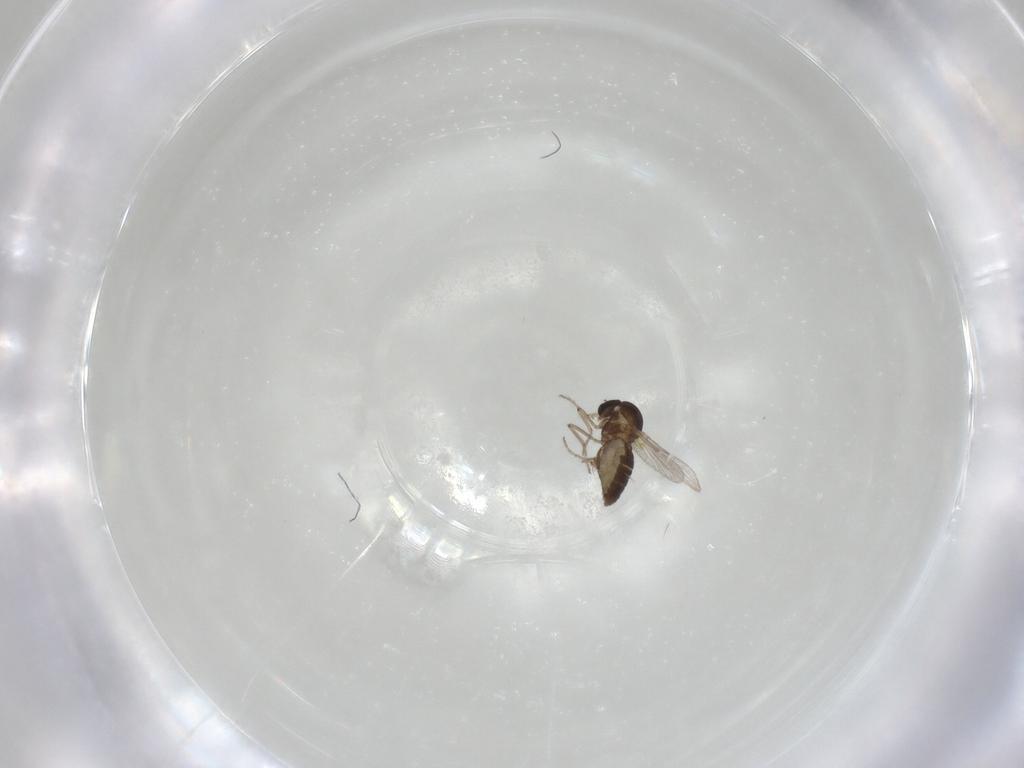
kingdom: Animalia
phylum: Arthropoda
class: Insecta
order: Diptera
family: Ceratopogonidae
